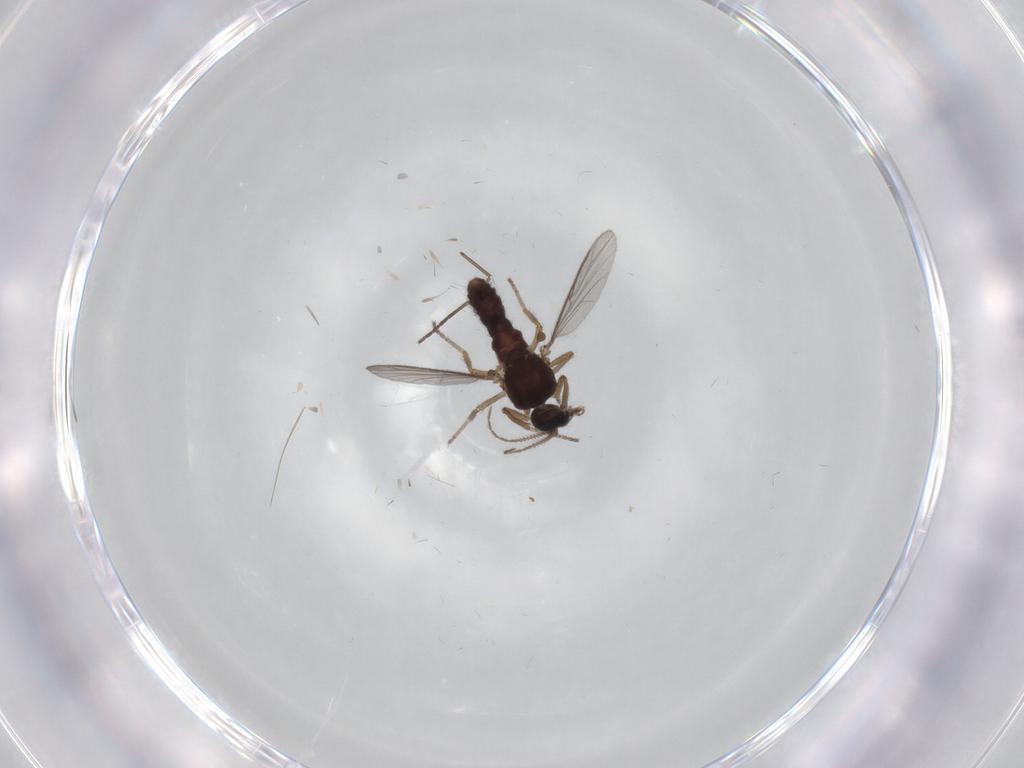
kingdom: Animalia
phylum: Arthropoda
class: Insecta
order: Diptera
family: Ceratopogonidae
